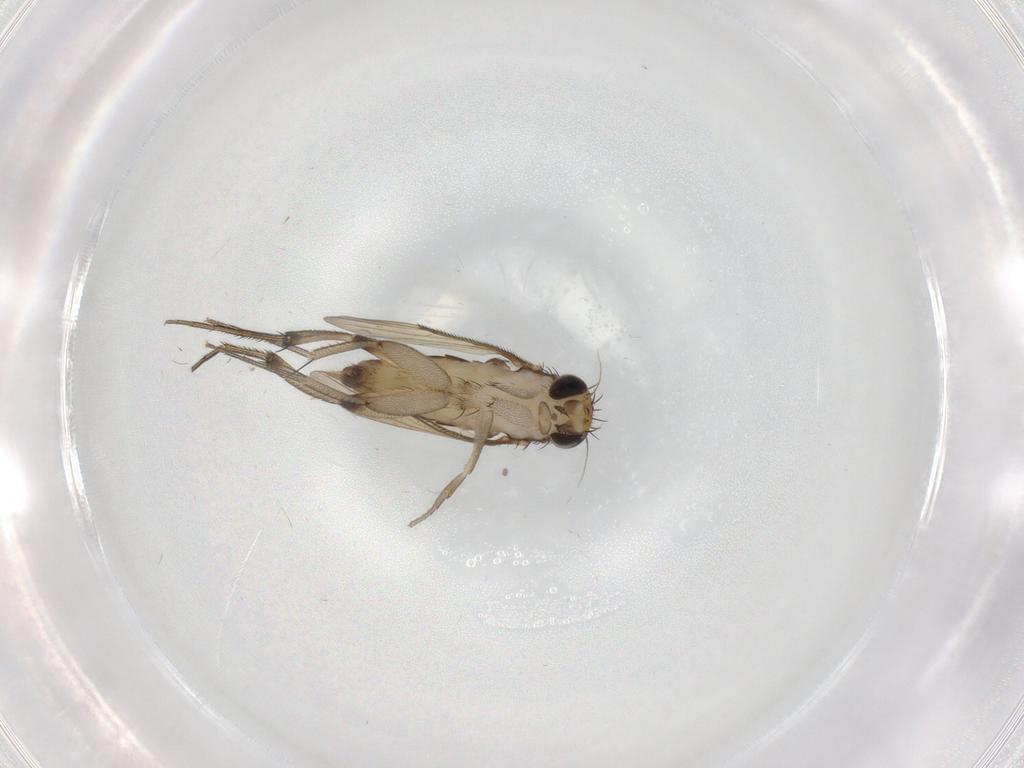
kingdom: Animalia
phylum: Arthropoda
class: Insecta
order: Diptera
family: Phoridae
